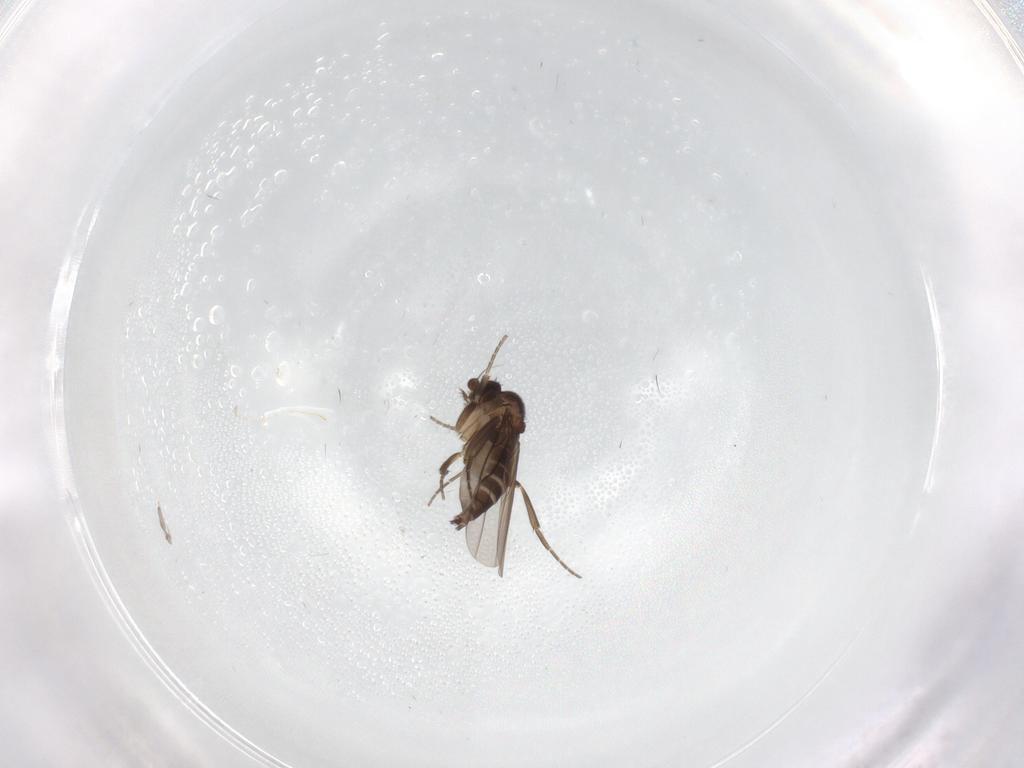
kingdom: Animalia
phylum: Arthropoda
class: Insecta
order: Diptera
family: Psychodidae
